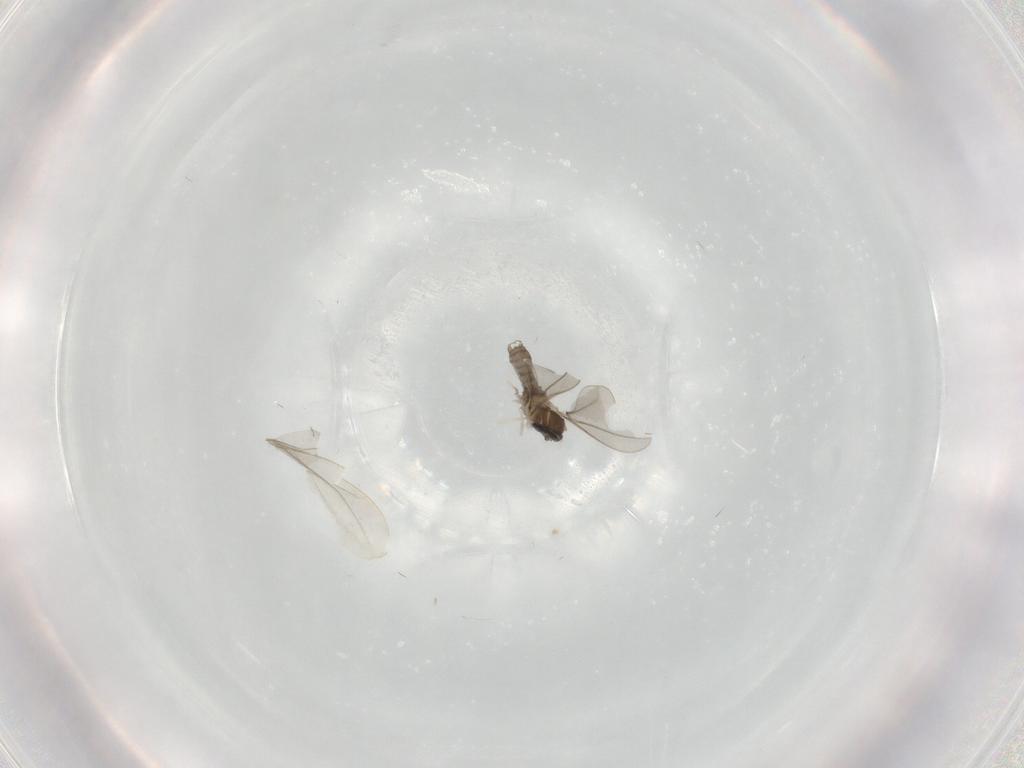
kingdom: Animalia
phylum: Arthropoda
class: Insecta
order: Diptera
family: Cecidomyiidae
